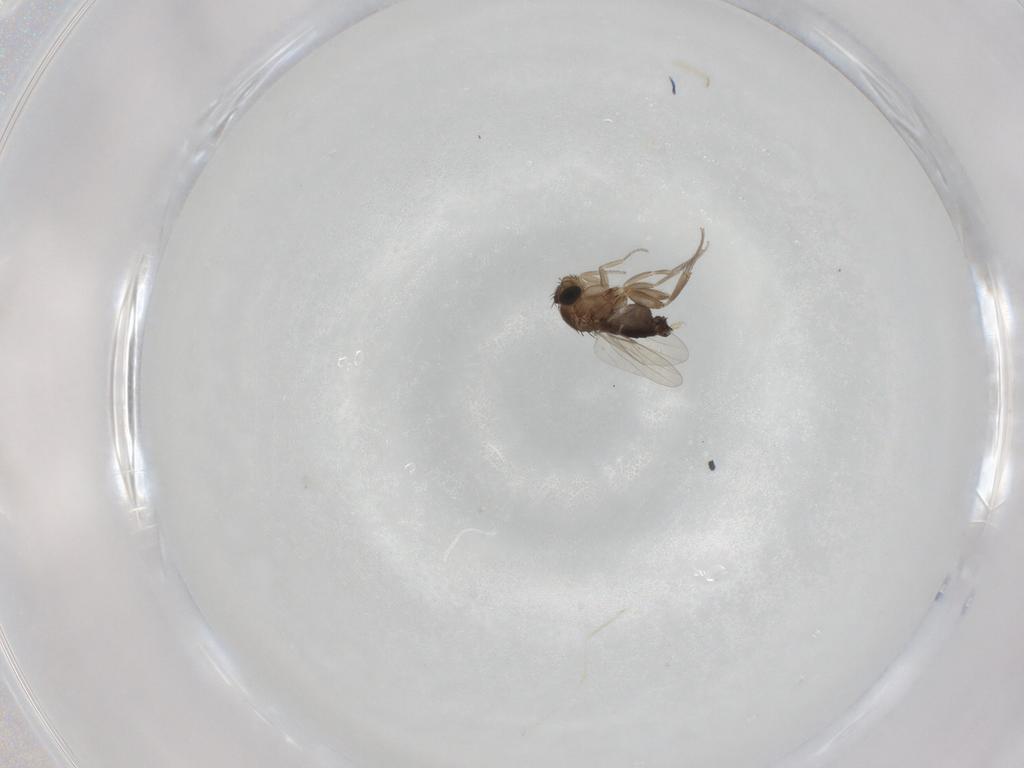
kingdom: Animalia
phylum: Arthropoda
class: Insecta
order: Diptera
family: Phoridae
